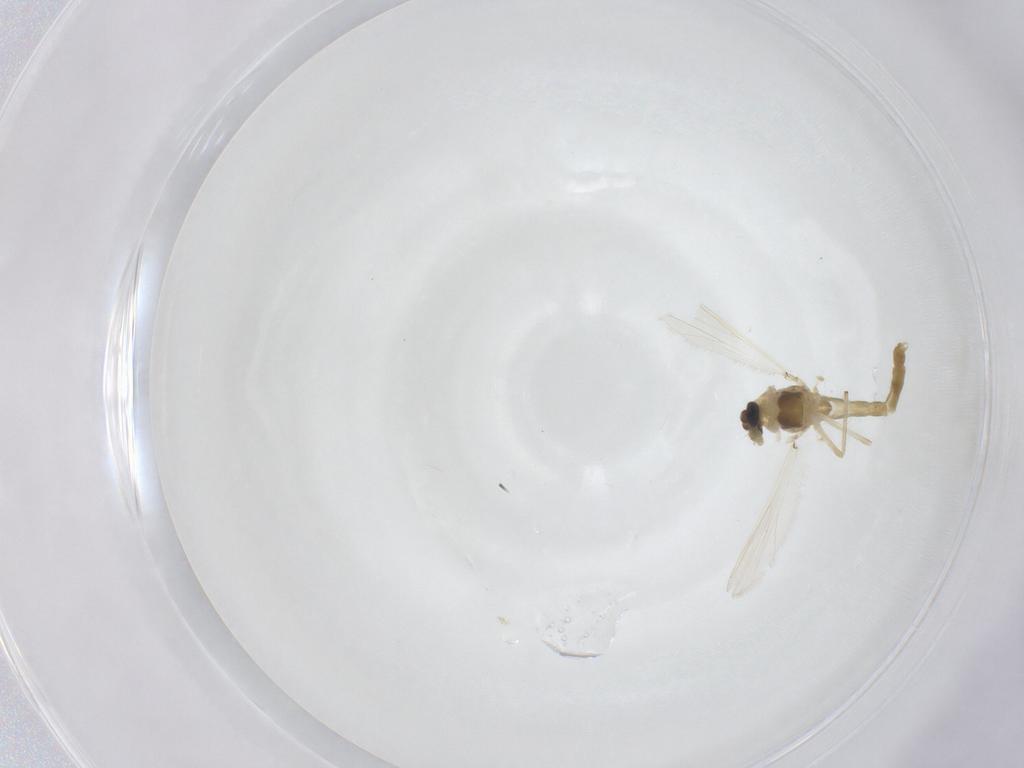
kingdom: Animalia
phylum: Arthropoda
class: Insecta
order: Diptera
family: Chironomidae
